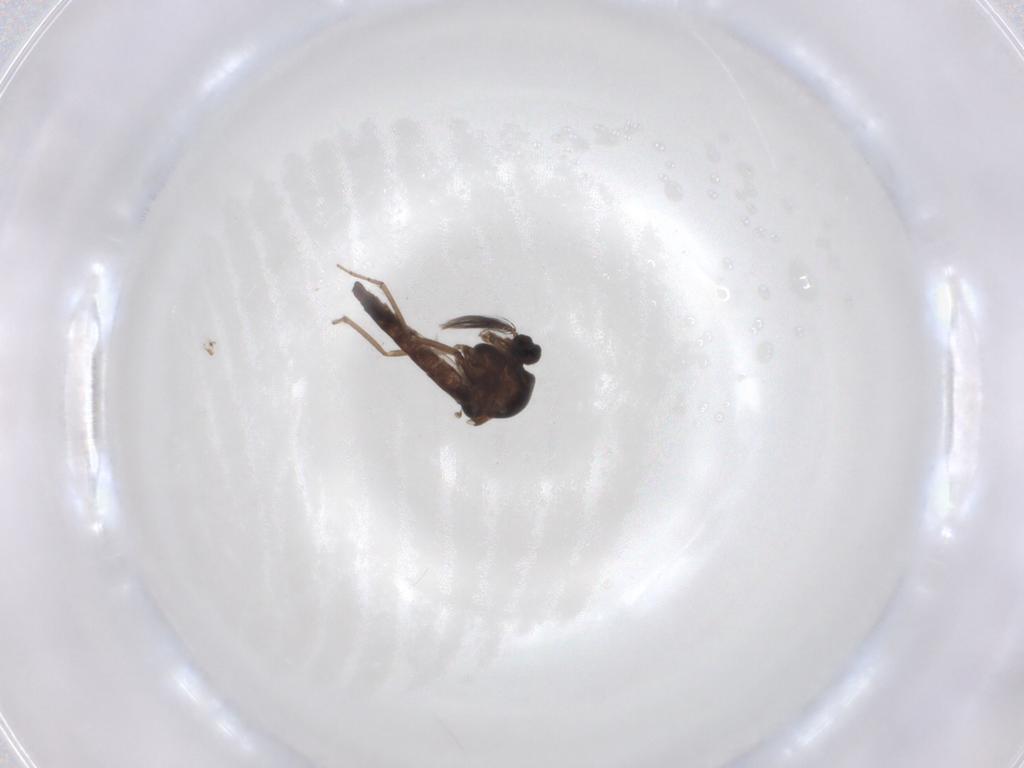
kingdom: Animalia
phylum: Arthropoda
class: Insecta
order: Diptera
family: Ceratopogonidae
